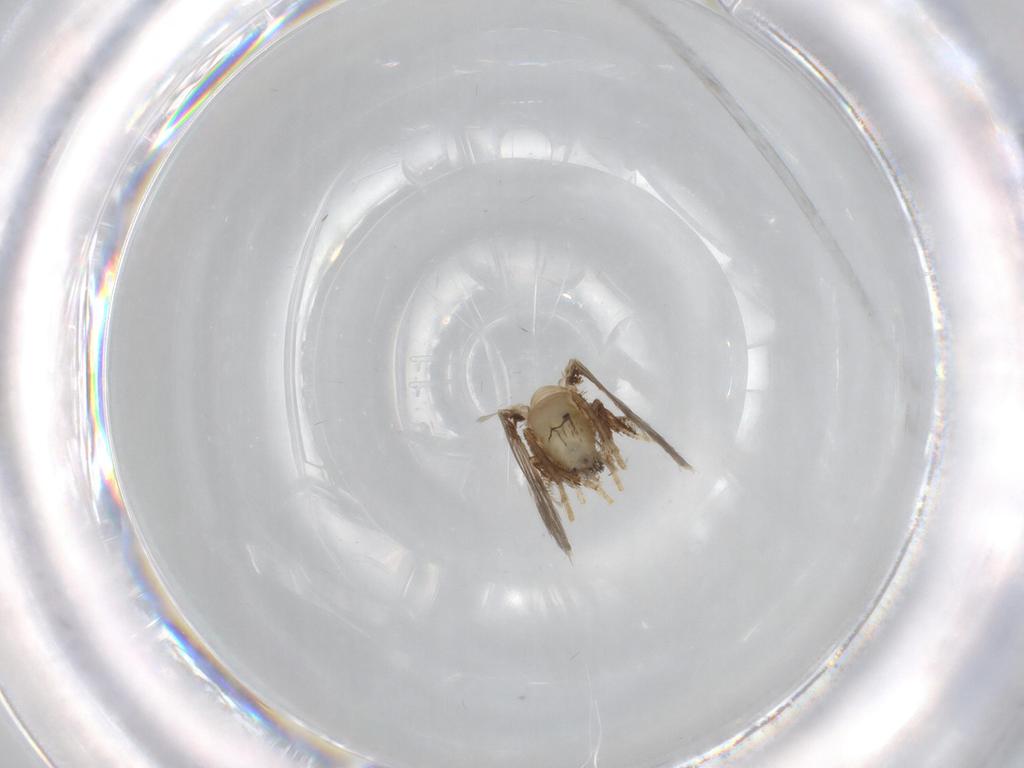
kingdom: Animalia
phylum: Arthropoda
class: Insecta
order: Diptera
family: Psychodidae
